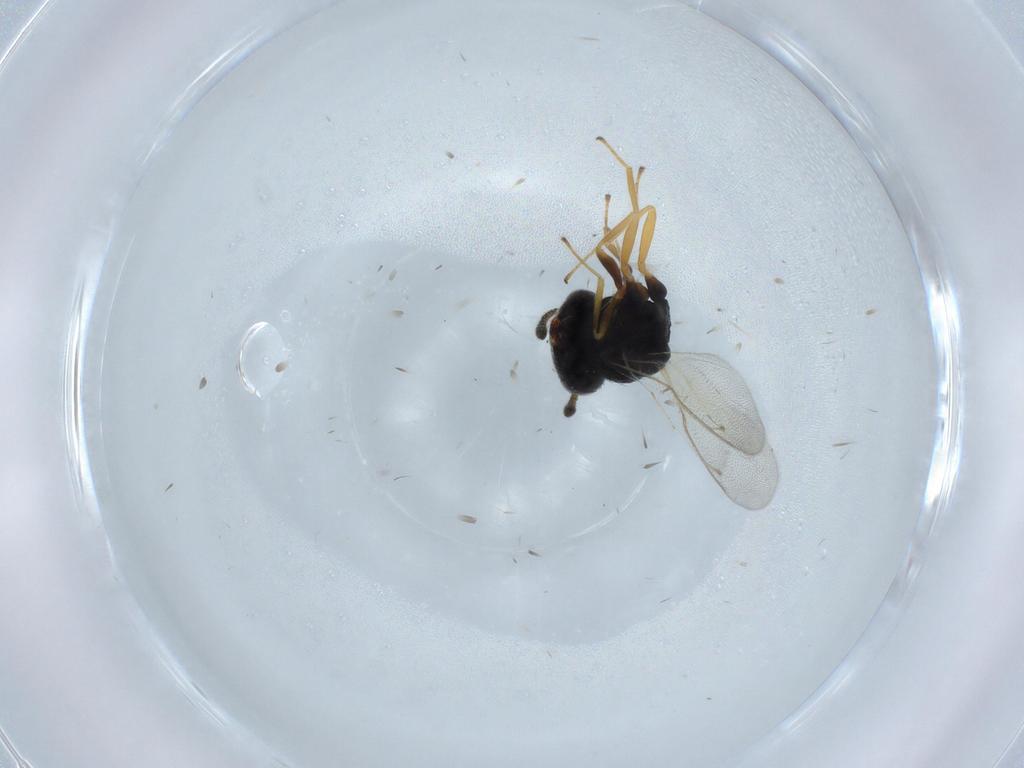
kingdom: Animalia
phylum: Arthropoda
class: Insecta
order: Hymenoptera
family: Pteromalidae
